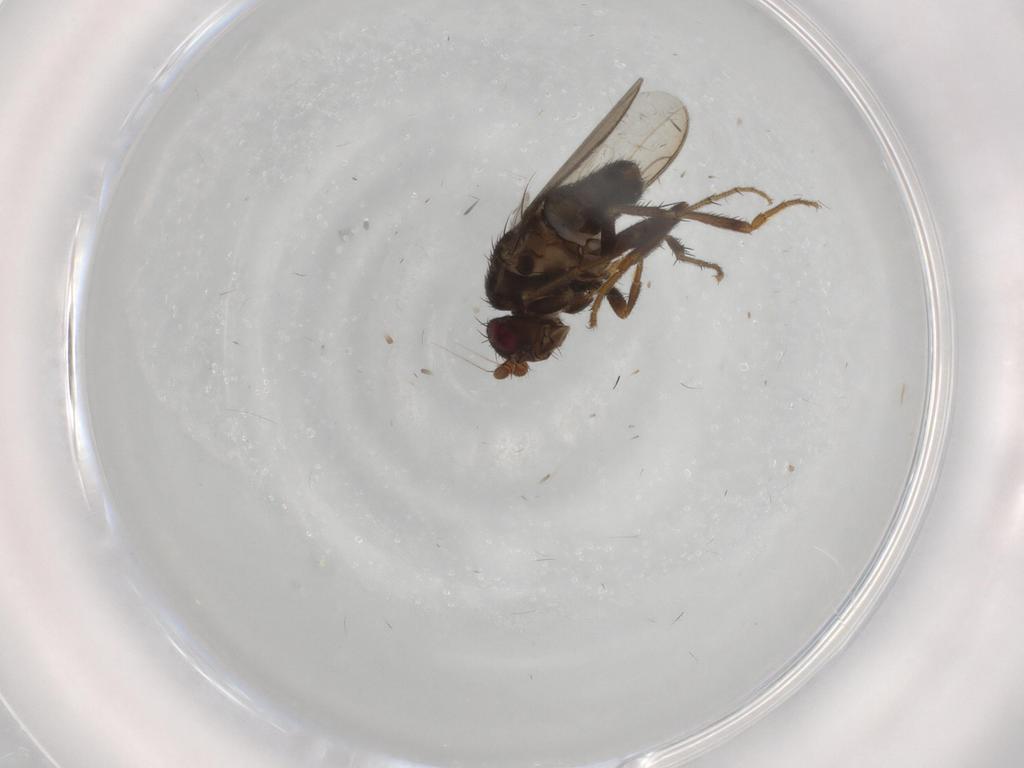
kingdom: Animalia
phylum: Arthropoda
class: Insecta
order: Diptera
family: Sphaeroceridae
